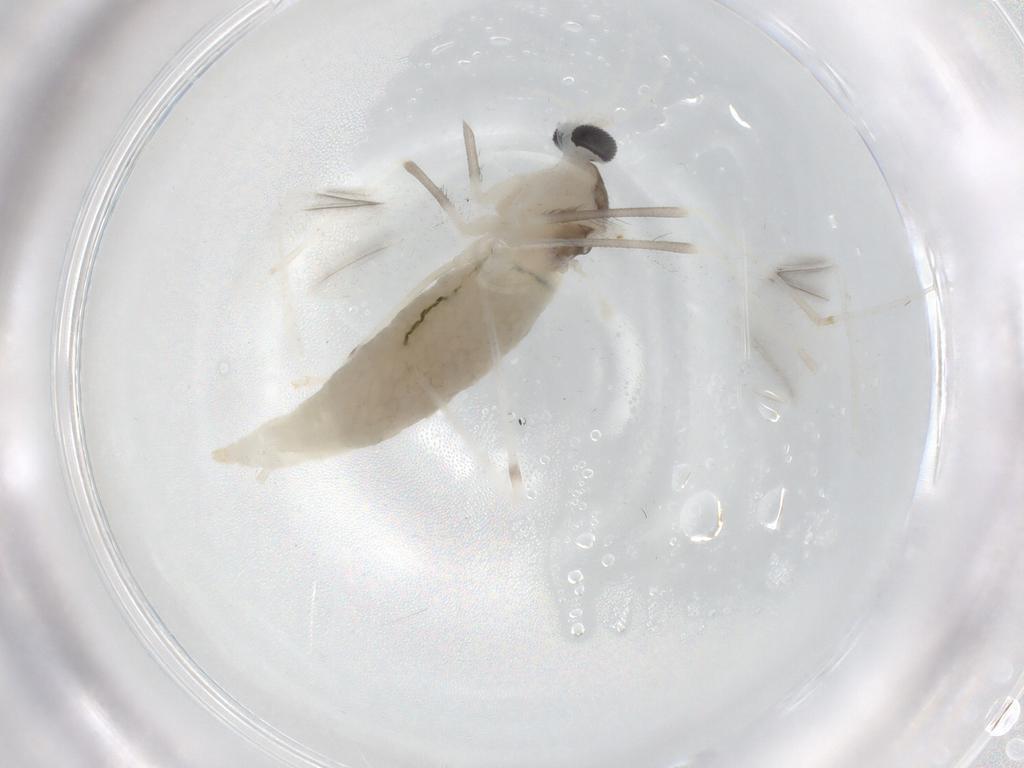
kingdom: Animalia
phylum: Arthropoda
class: Insecta
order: Diptera
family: Cecidomyiidae
